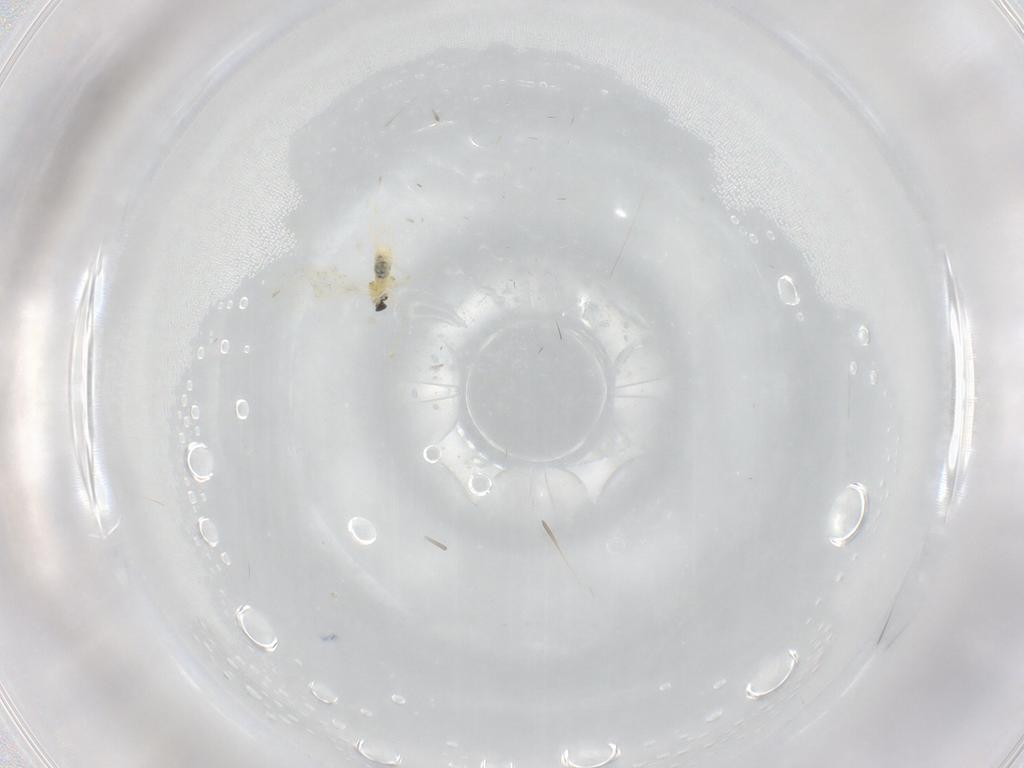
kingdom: Animalia
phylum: Arthropoda
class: Insecta
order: Diptera
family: Cecidomyiidae
